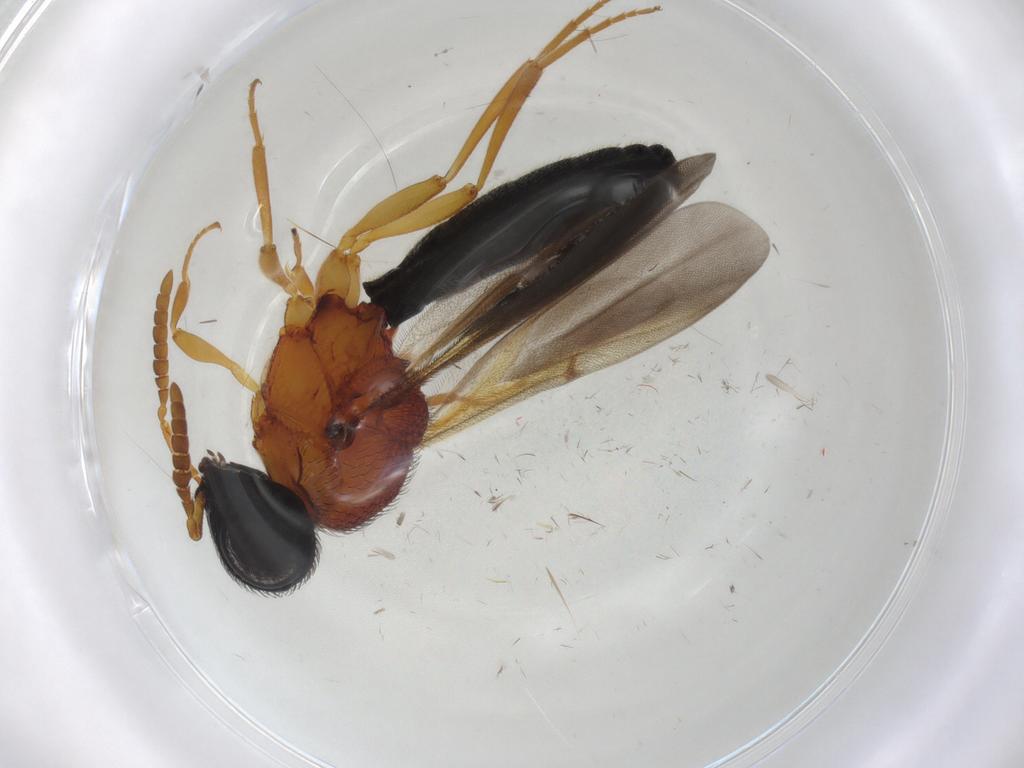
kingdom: Animalia
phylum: Arthropoda
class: Insecta
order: Hymenoptera
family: Scelionidae
